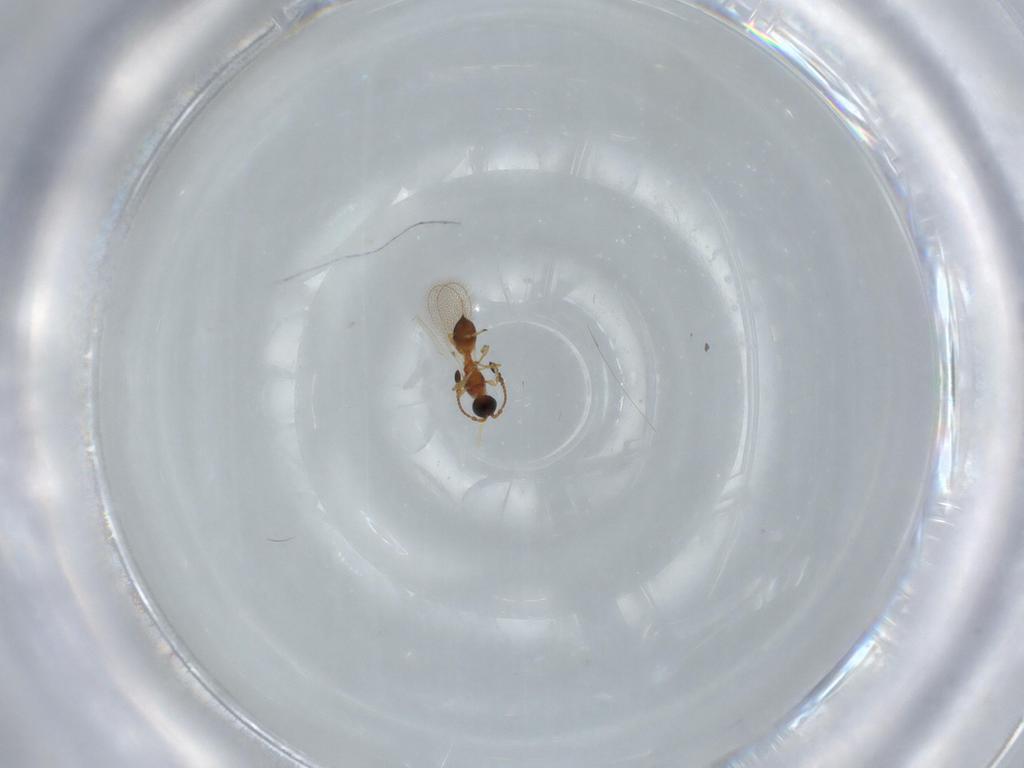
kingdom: Animalia
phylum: Arthropoda
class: Insecta
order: Hymenoptera
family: Diapriidae
